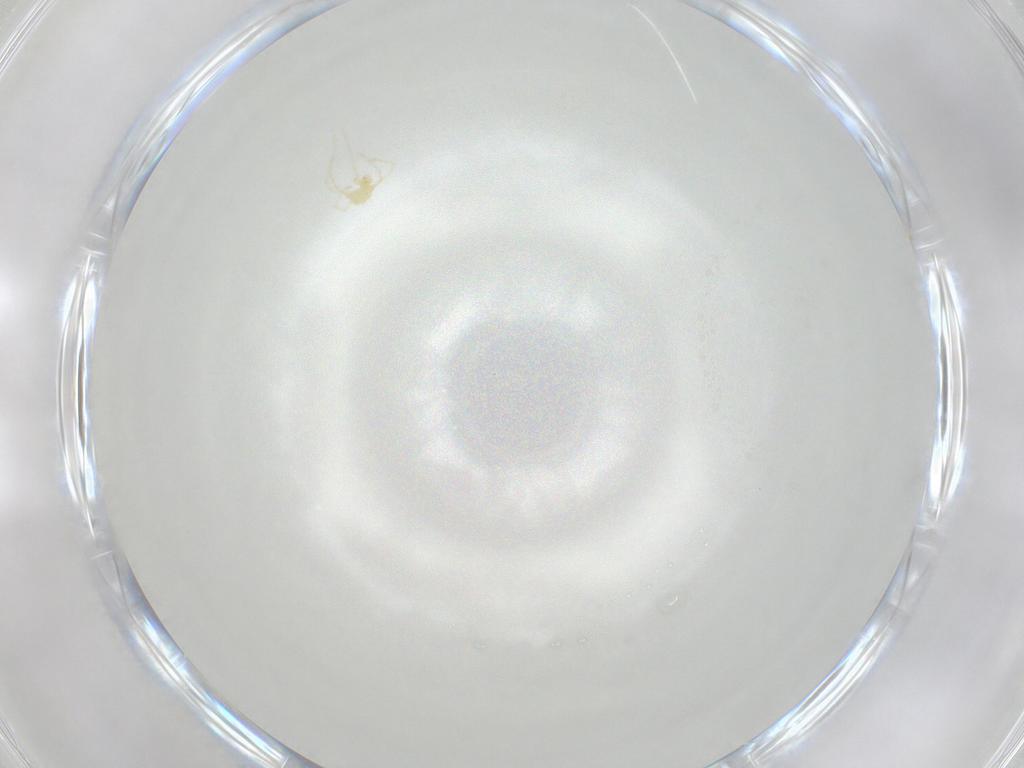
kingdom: Animalia
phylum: Arthropoda
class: Arachnida
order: Trombidiformes
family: Erythraeidae
